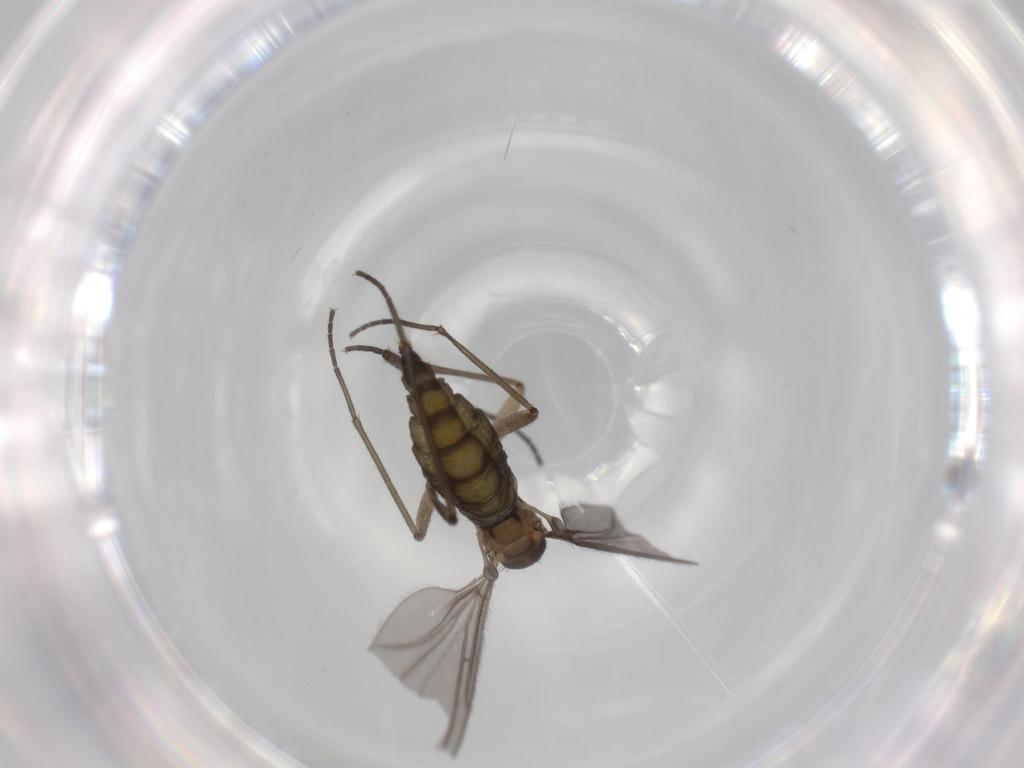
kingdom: Animalia
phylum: Arthropoda
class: Insecta
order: Diptera
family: Sciaridae
